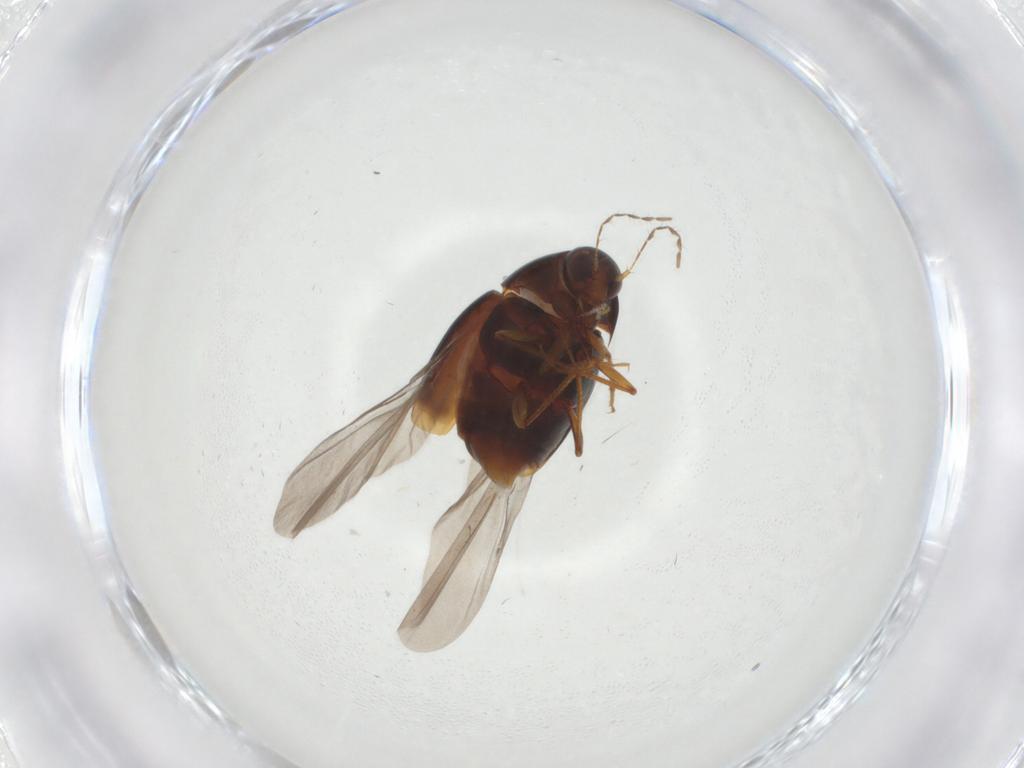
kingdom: Animalia
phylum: Arthropoda
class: Insecta
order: Coleoptera
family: Staphylinidae
